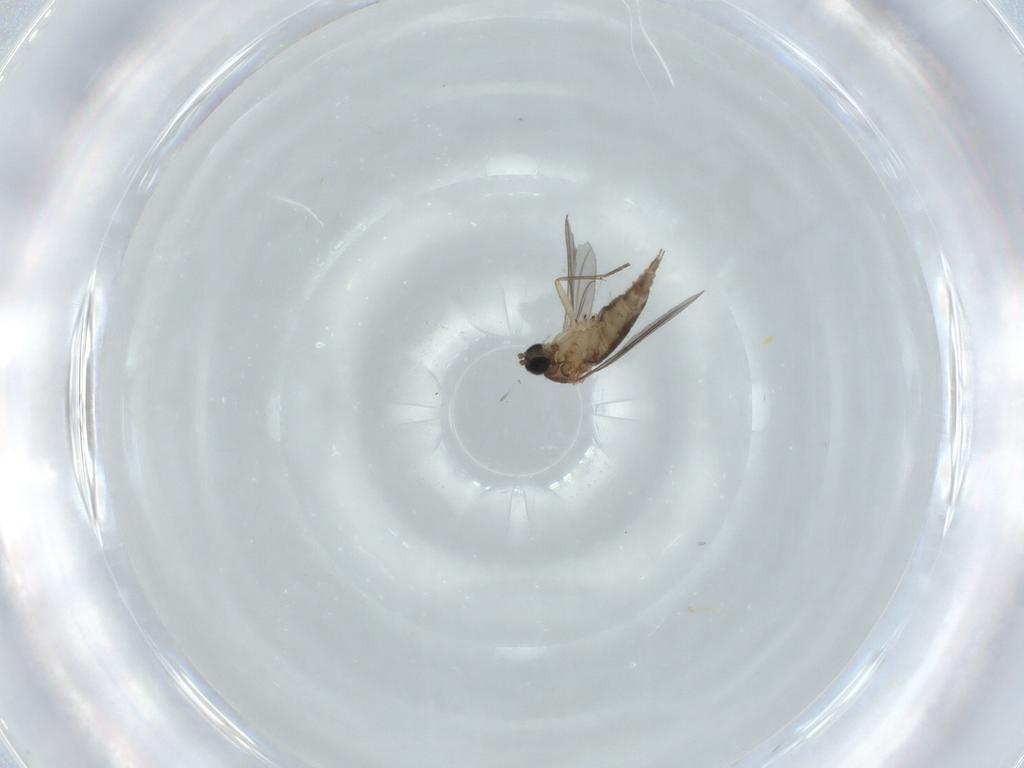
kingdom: Animalia
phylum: Arthropoda
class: Insecta
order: Diptera
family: Sciaridae
